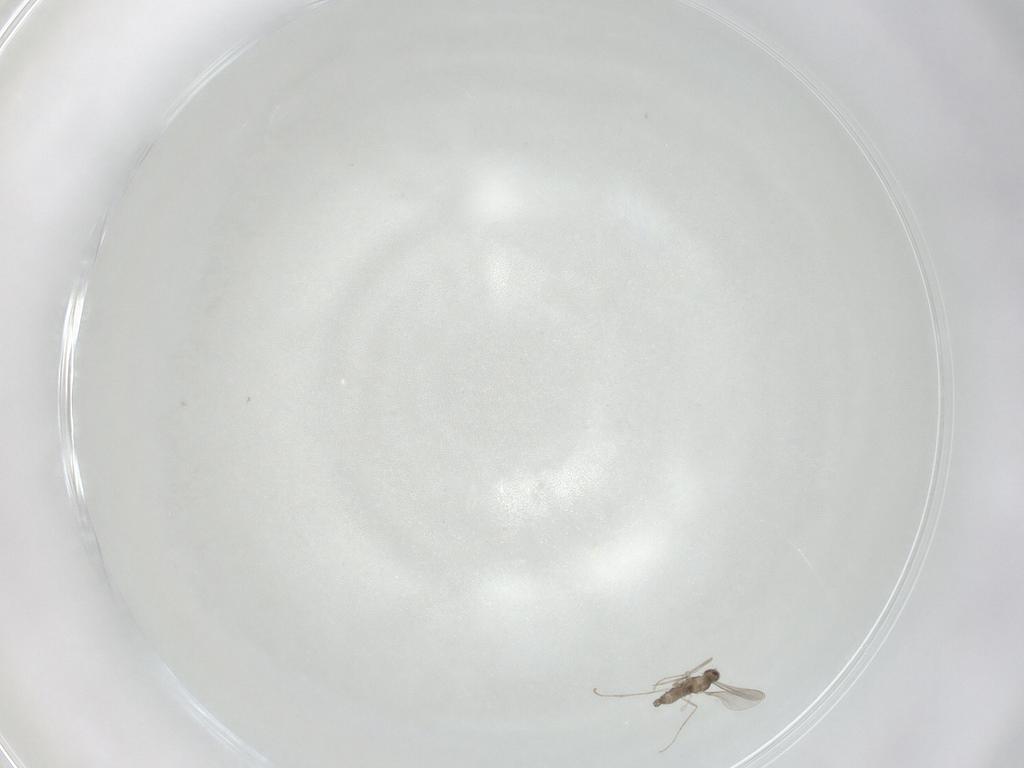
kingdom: Animalia
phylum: Arthropoda
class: Insecta
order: Diptera
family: Cecidomyiidae
